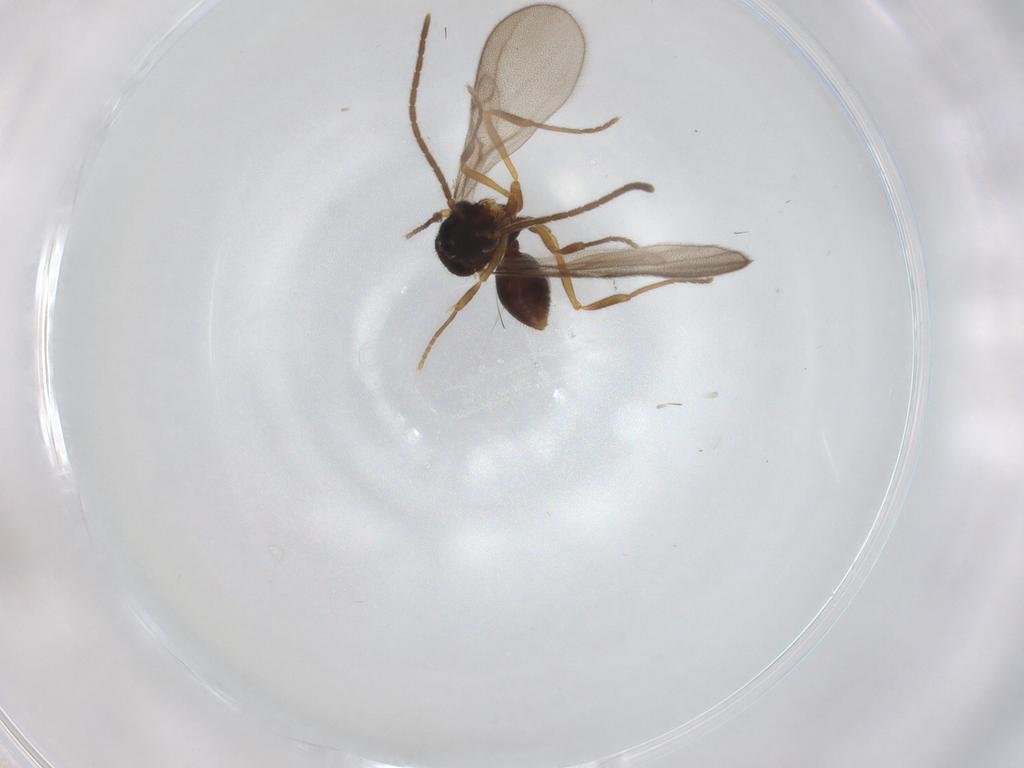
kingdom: Animalia
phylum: Arthropoda
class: Insecta
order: Hymenoptera
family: Formicidae
